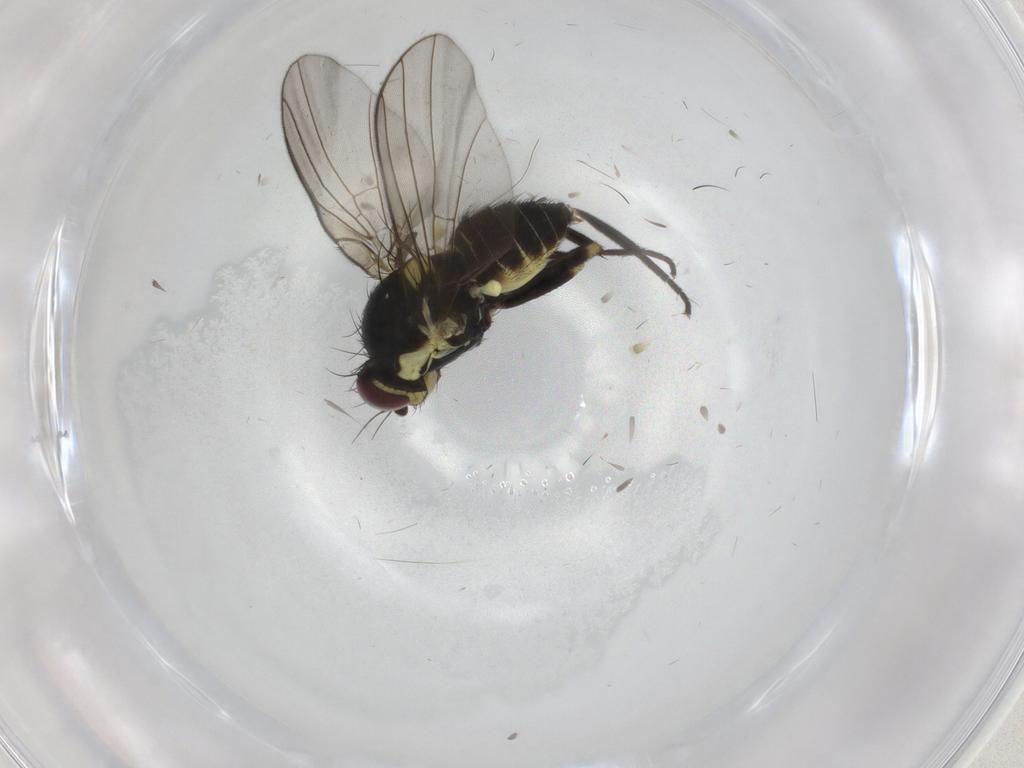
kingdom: Animalia
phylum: Arthropoda
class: Insecta
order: Diptera
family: Agromyzidae
